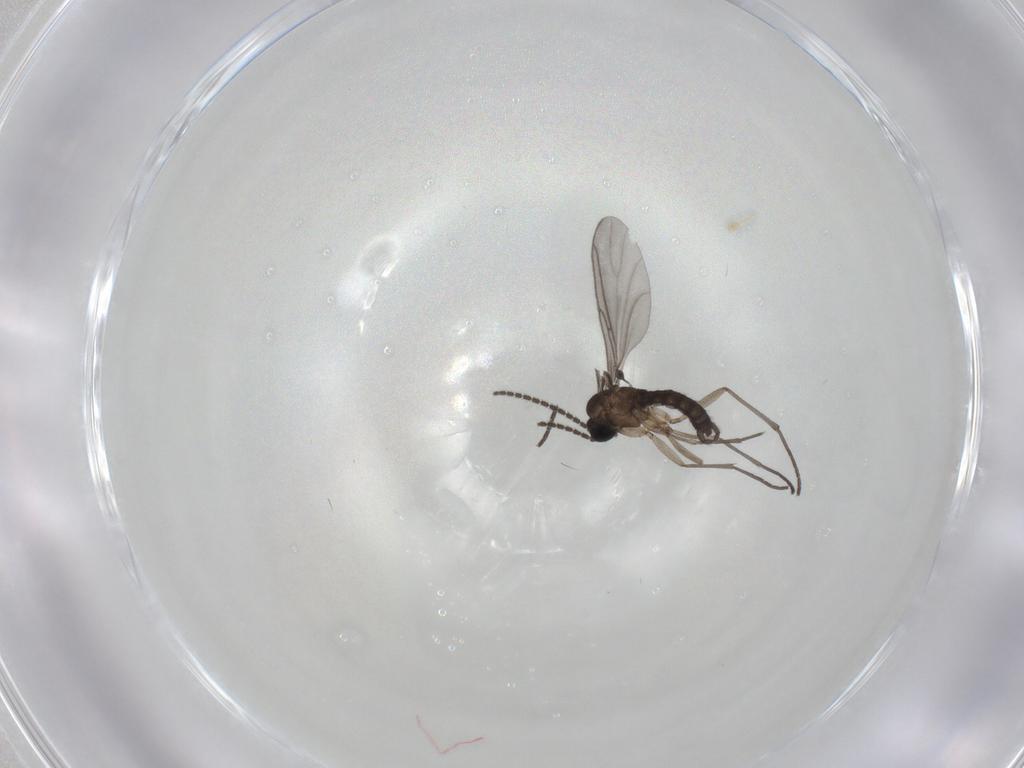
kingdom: Animalia
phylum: Arthropoda
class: Insecta
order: Diptera
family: Sciaridae
